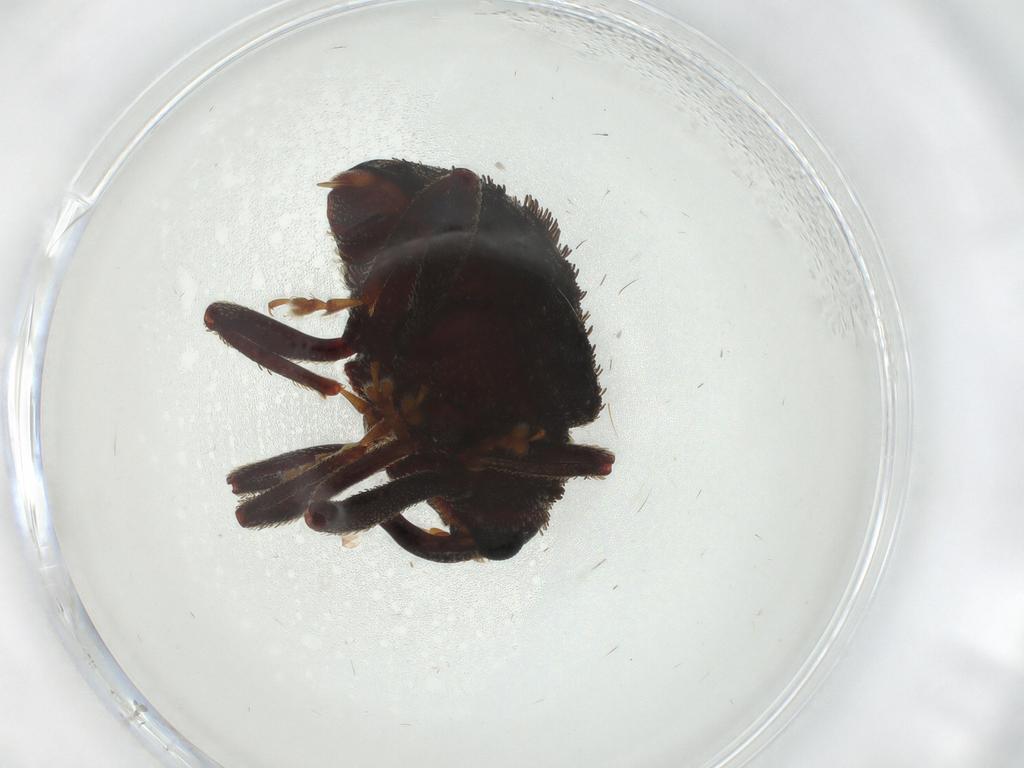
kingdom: Animalia
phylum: Arthropoda
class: Insecta
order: Coleoptera
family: Curculionidae
